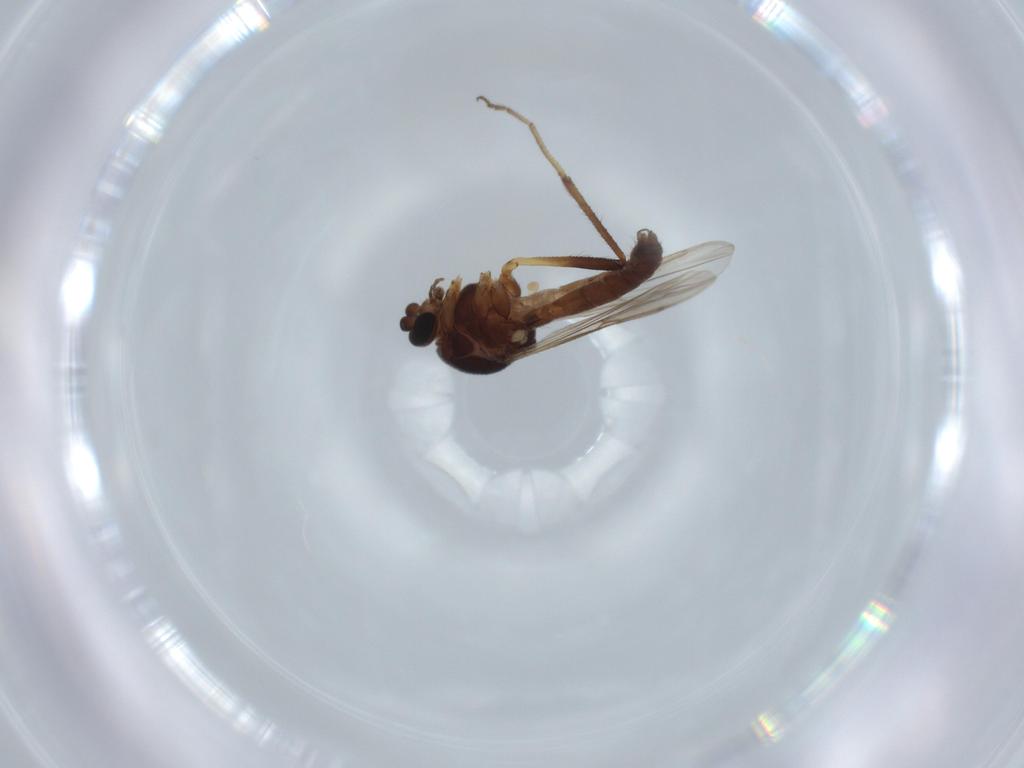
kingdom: Animalia
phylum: Arthropoda
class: Insecta
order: Diptera
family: Ceratopogonidae
